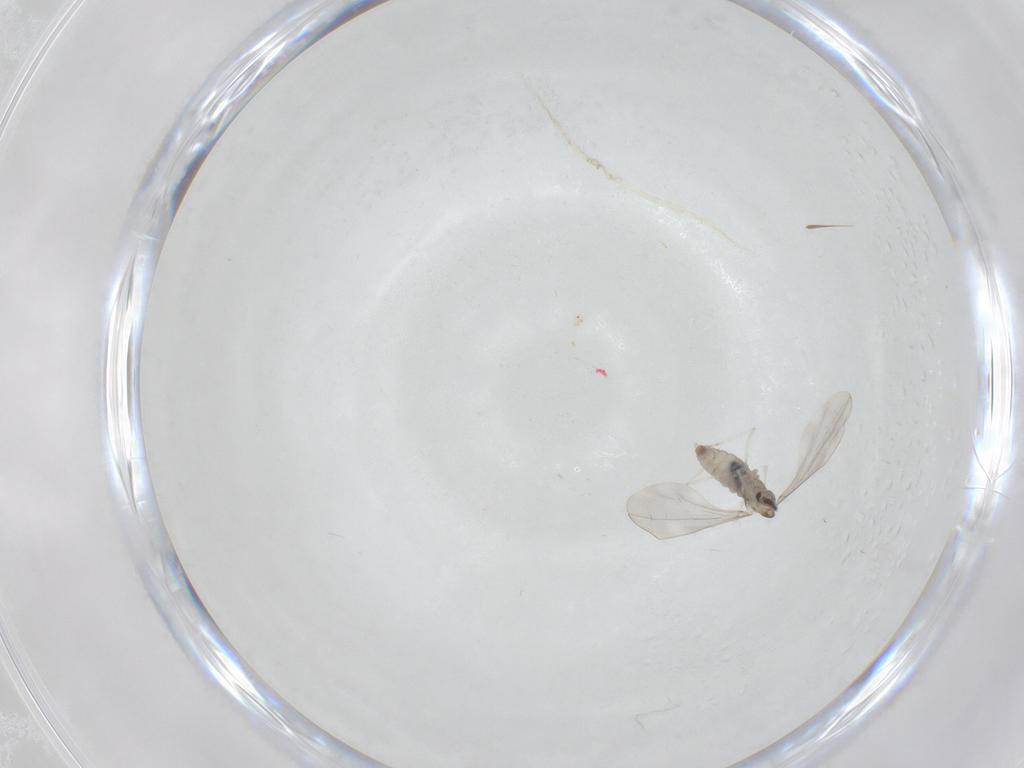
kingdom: Animalia
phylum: Arthropoda
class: Insecta
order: Diptera
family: Cecidomyiidae
